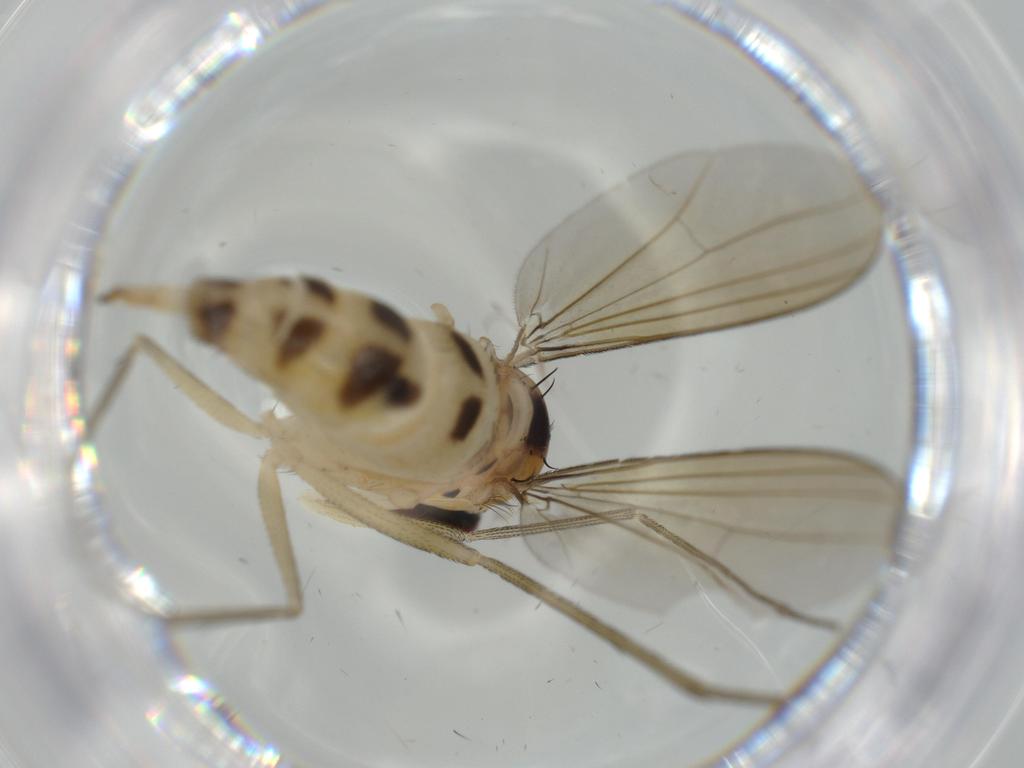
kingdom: Animalia
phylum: Arthropoda
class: Insecta
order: Diptera
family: Dolichopodidae
